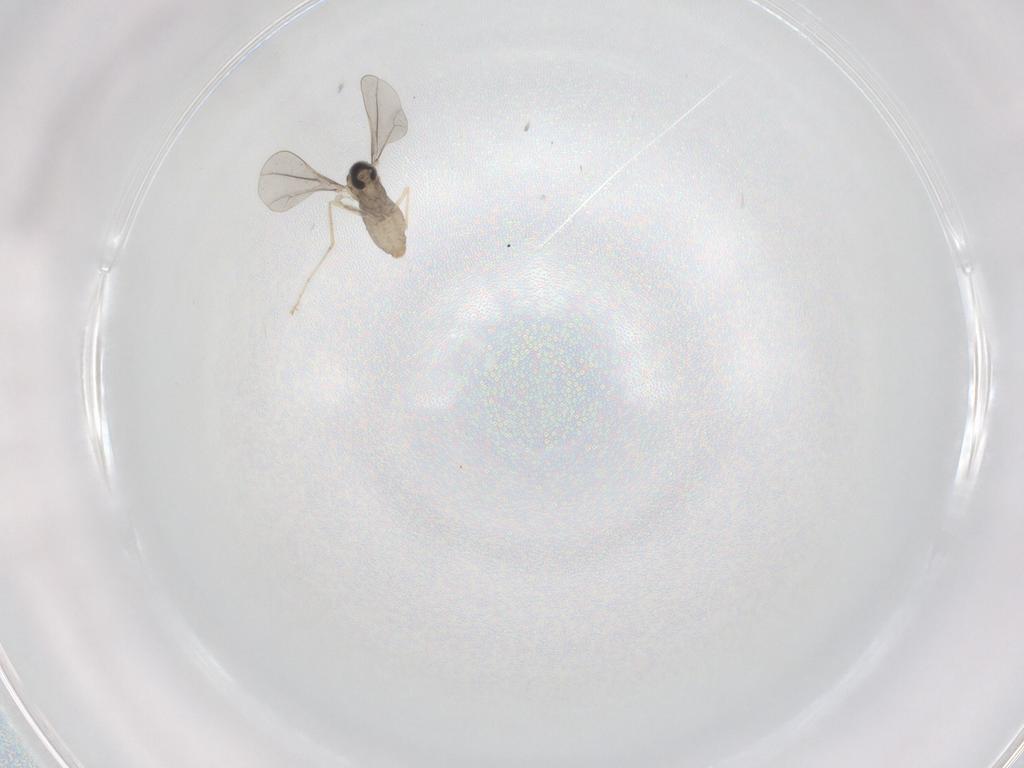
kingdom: Animalia
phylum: Arthropoda
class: Insecta
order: Diptera
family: Cecidomyiidae
